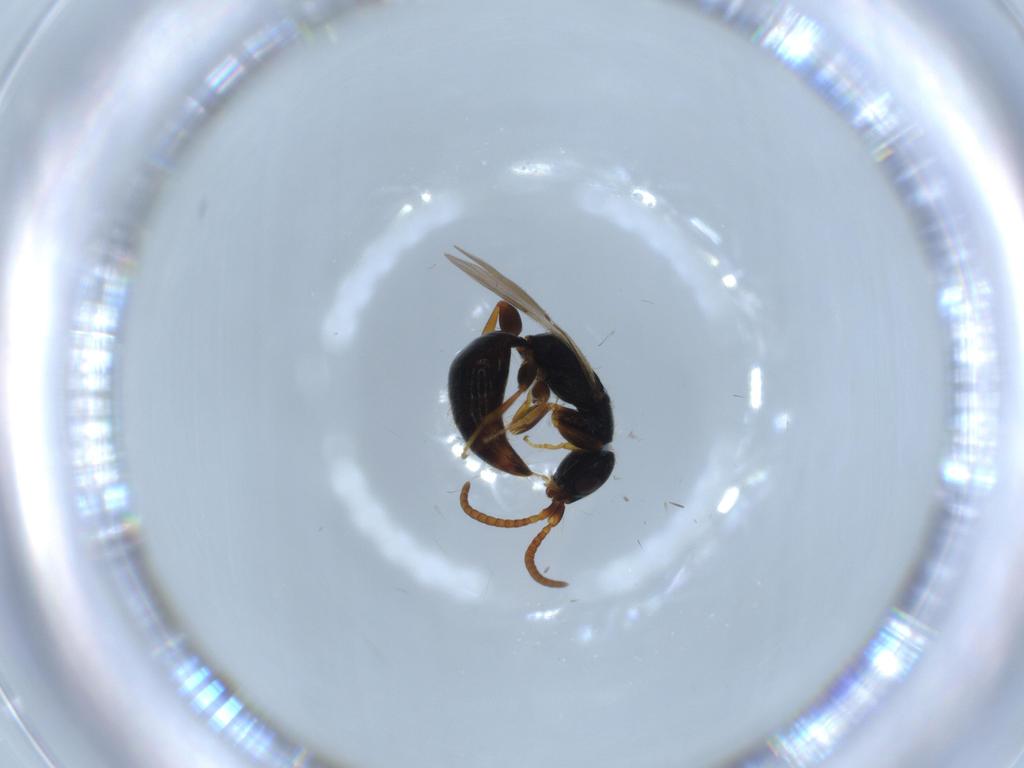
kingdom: Animalia
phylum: Arthropoda
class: Insecta
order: Hymenoptera
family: Bethylidae
